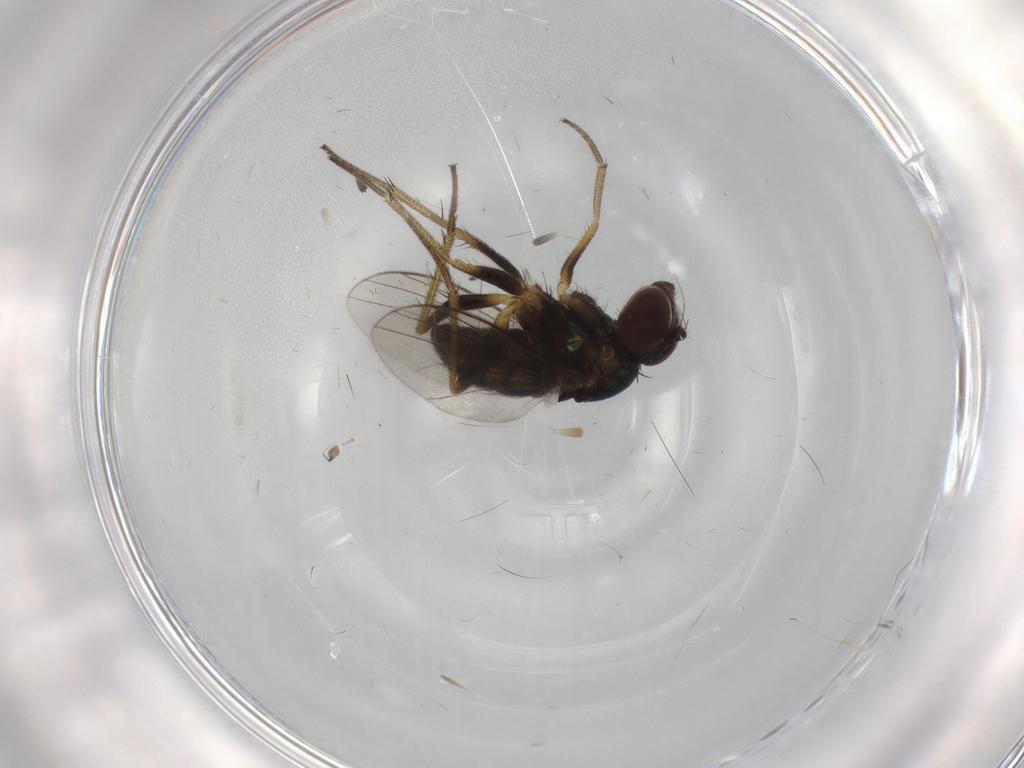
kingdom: Animalia
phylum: Arthropoda
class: Insecta
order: Diptera
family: Dolichopodidae
